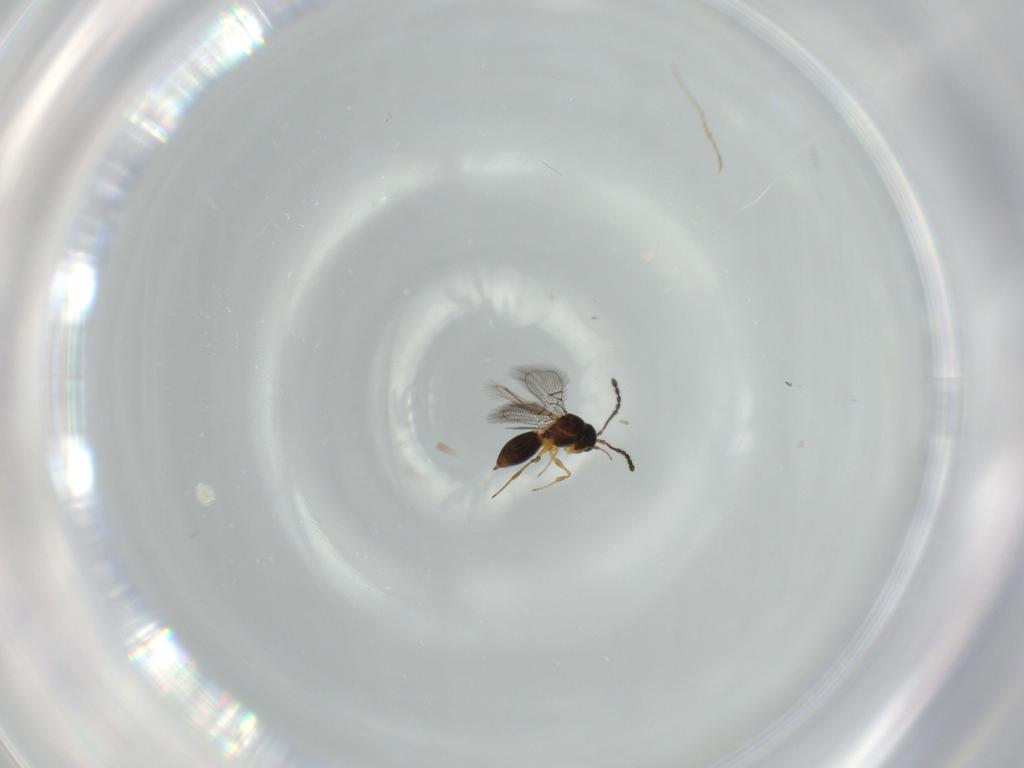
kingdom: Animalia
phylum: Arthropoda
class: Insecta
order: Hymenoptera
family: Figitidae
